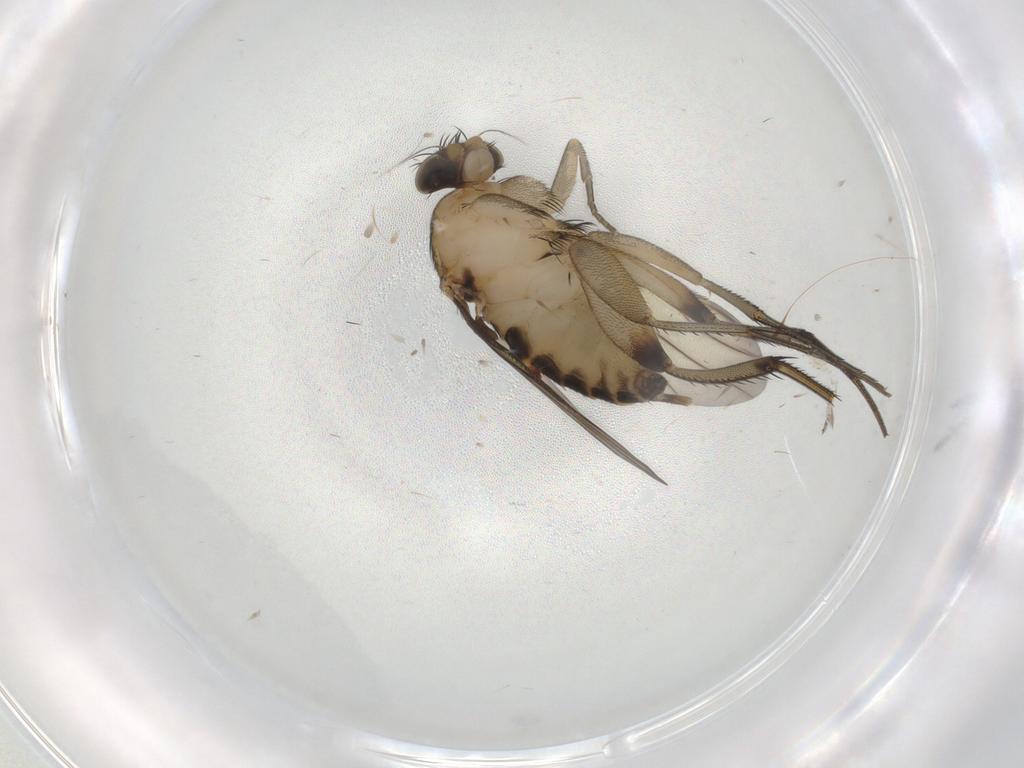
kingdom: Animalia
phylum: Arthropoda
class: Insecta
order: Diptera
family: Phoridae
